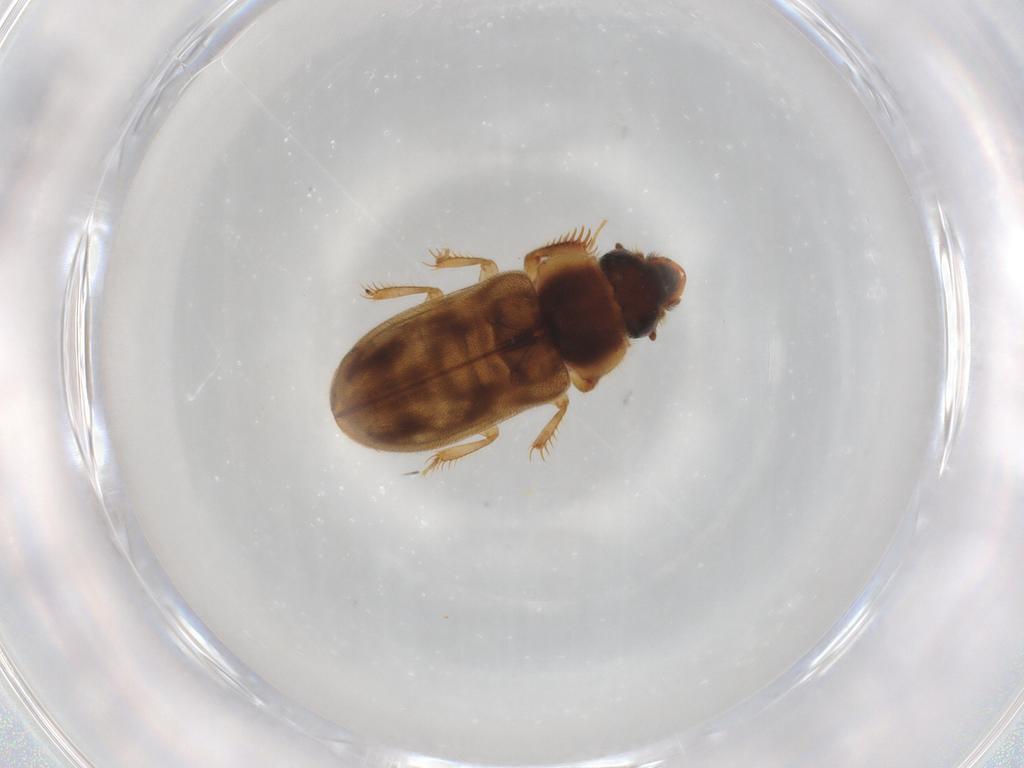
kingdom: Animalia
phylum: Arthropoda
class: Insecta
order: Coleoptera
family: Heteroceridae
